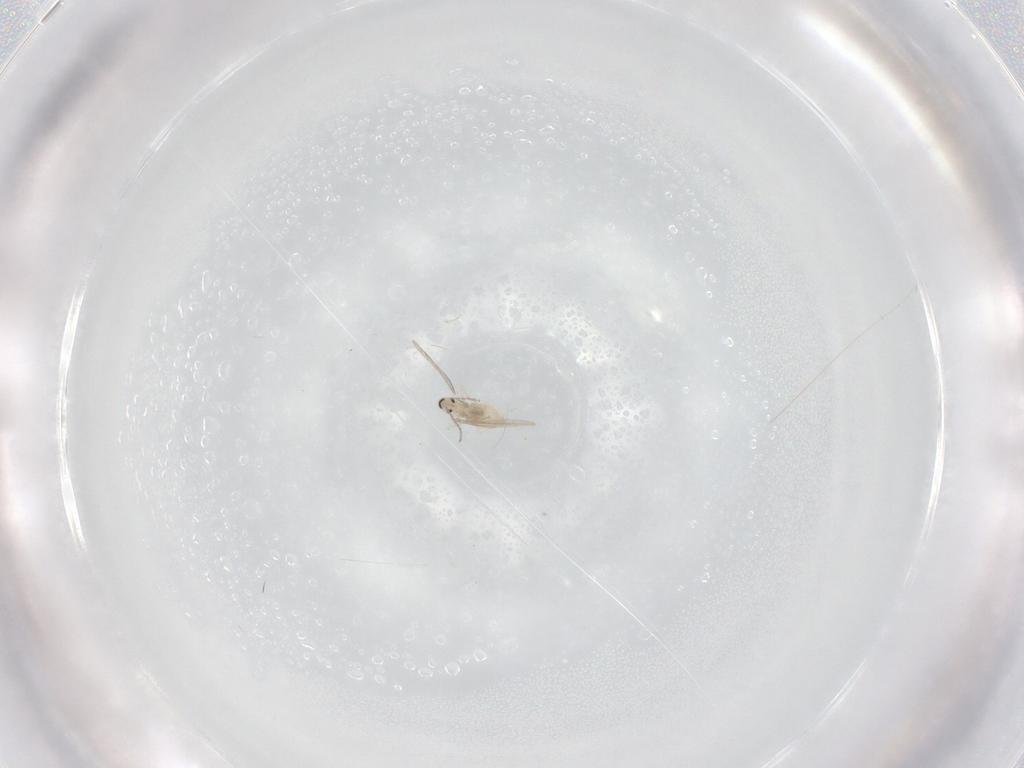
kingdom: Animalia
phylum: Arthropoda
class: Insecta
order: Diptera
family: Cecidomyiidae
